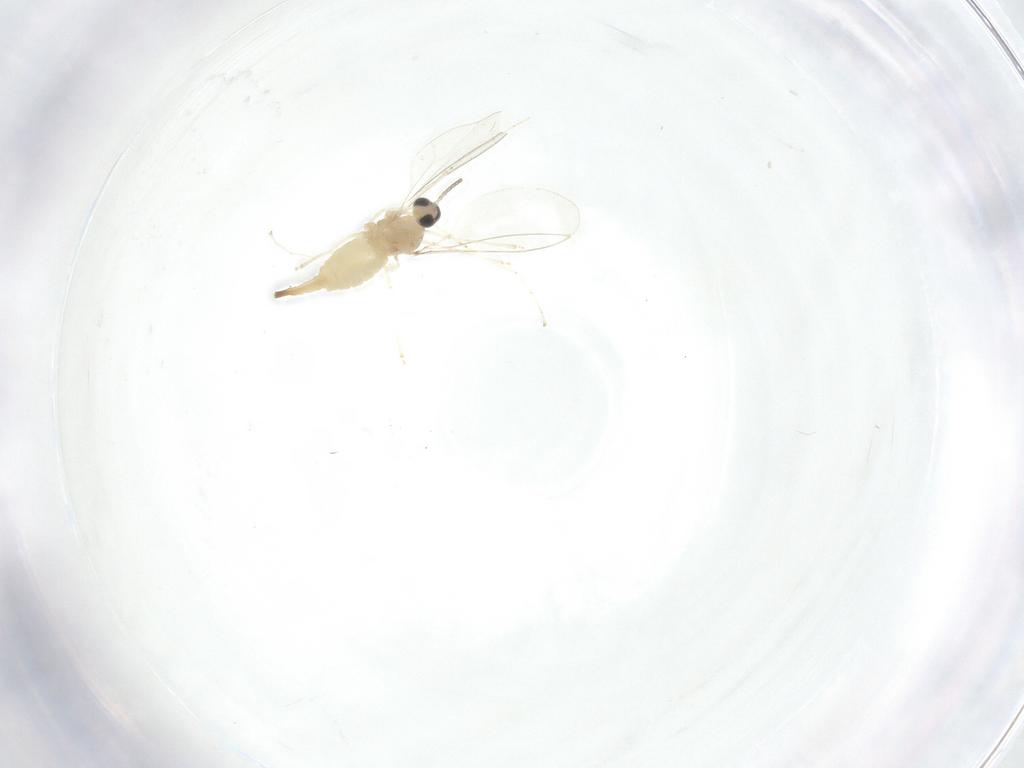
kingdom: Animalia
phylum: Arthropoda
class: Insecta
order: Diptera
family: Cecidomyiidae
